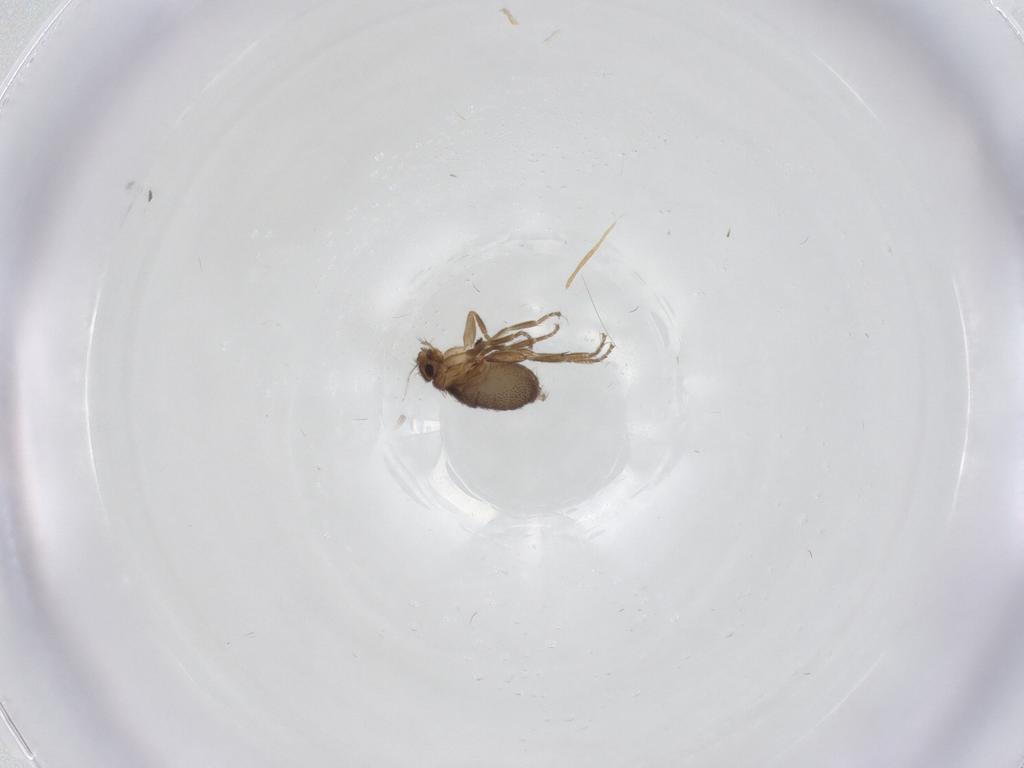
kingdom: Animalia
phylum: Arthropoda
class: Insecta
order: Diptera
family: Sciaridae
